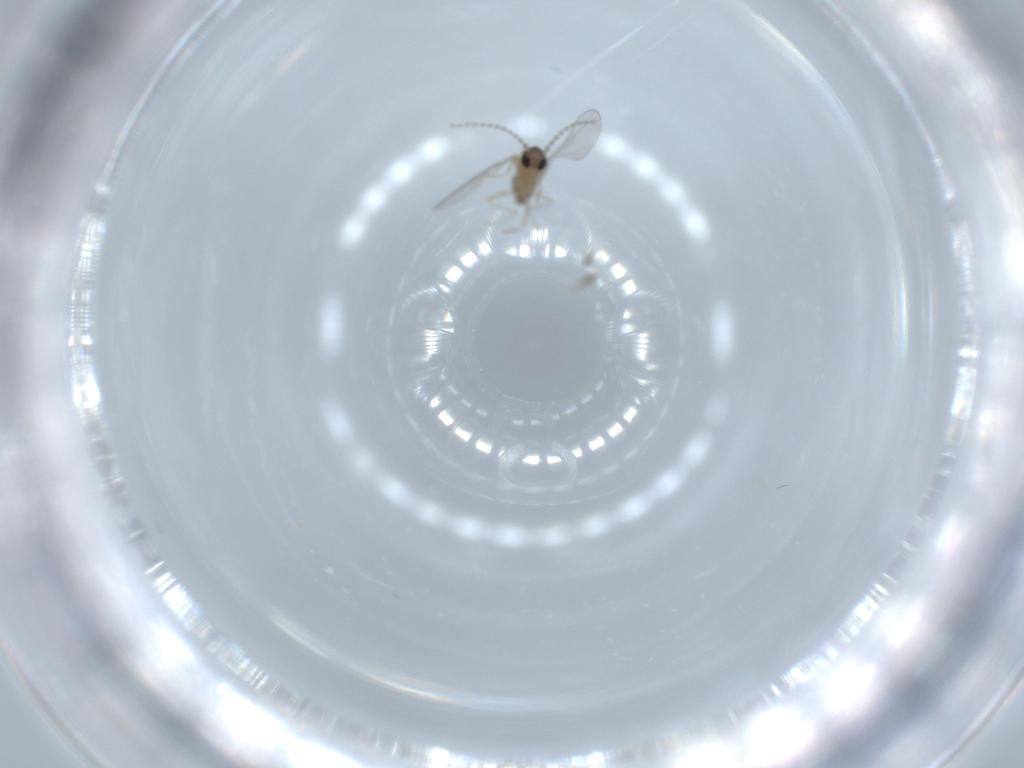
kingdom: Animalia
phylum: Arthropoda
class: Insecta
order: Diptera
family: Cecidomyiidae
